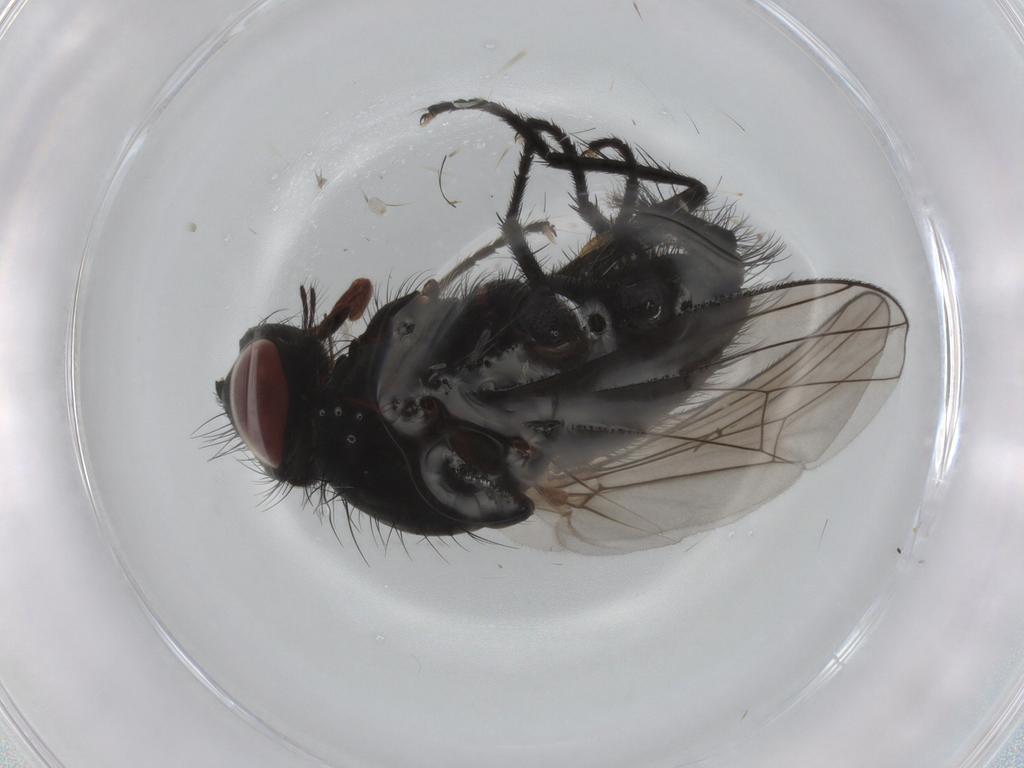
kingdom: Animalia
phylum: Arthropoda
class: Insecta
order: Diptera
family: Anthomyiidae
